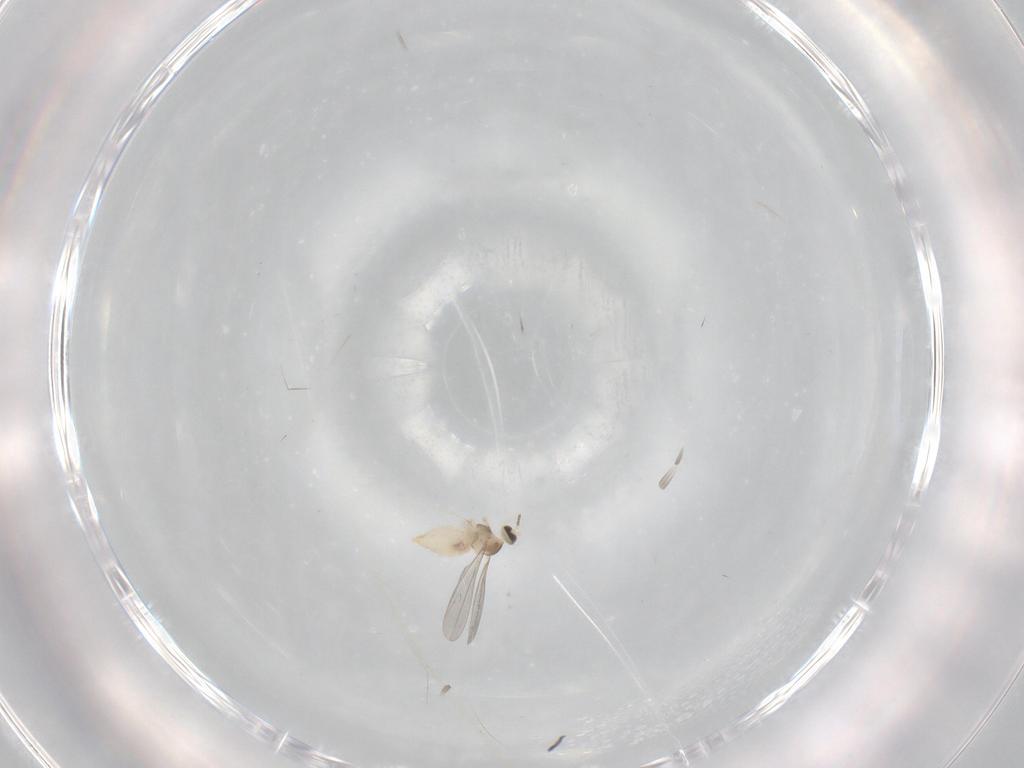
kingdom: Animalia
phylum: Arthropoda
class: Insecta
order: Diptera
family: Cecidomyiidae
